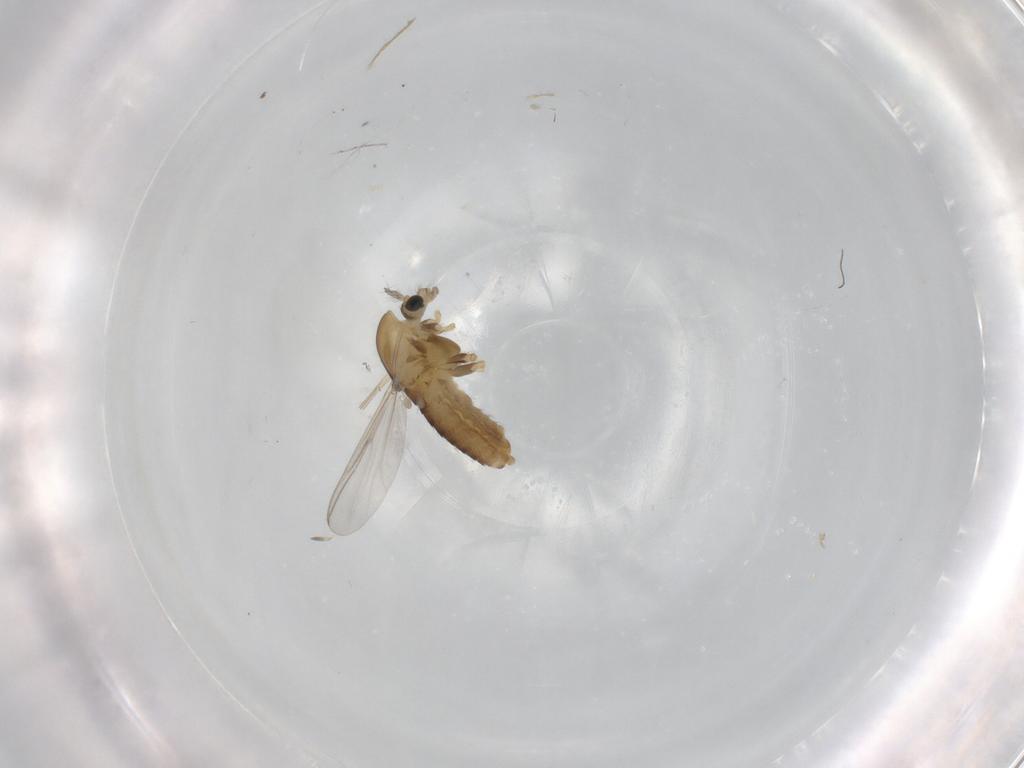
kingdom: Animalia
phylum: Arthropoda
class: Insecta
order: Diptera
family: Chironomidae
